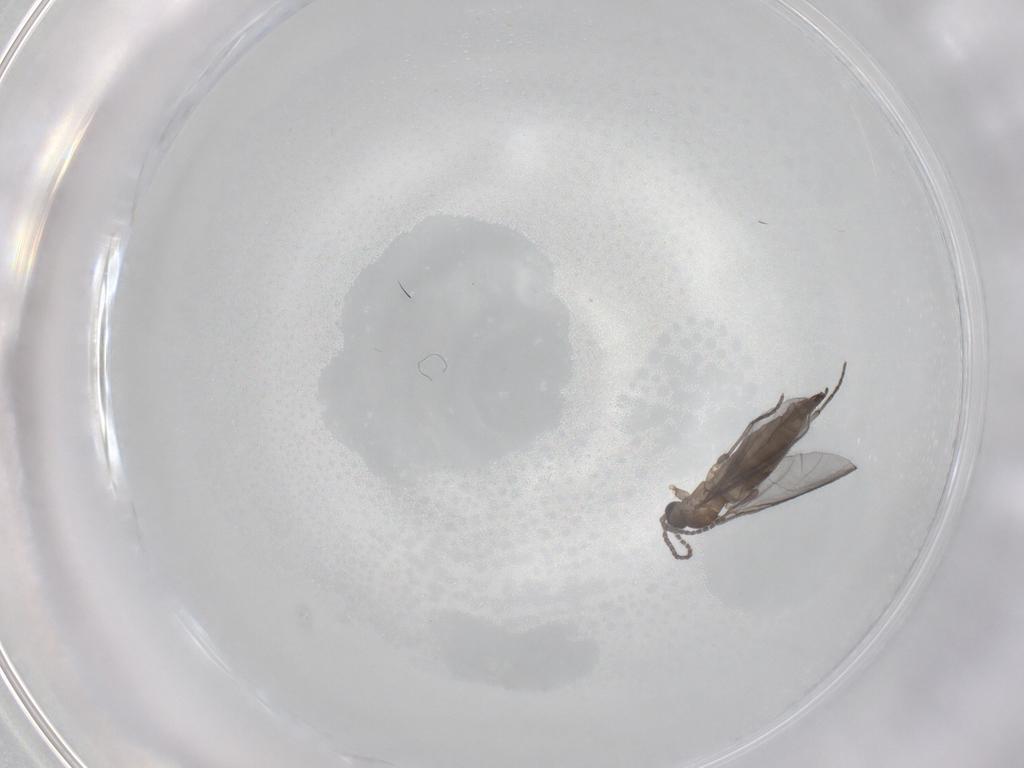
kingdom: Animalia
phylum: Arthropoda
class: Insecta
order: Diptera
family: Sciaridae
